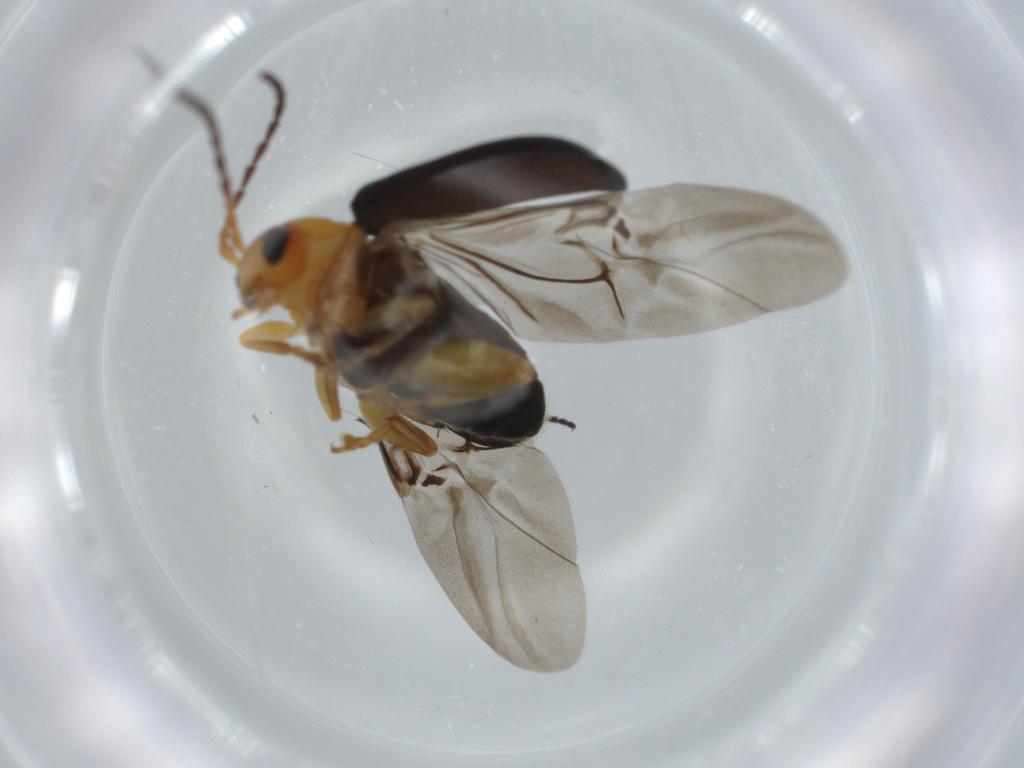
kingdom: Animalia
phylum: Arthropoda
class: Insecta
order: Coleoptera
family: Chrysomelidae
